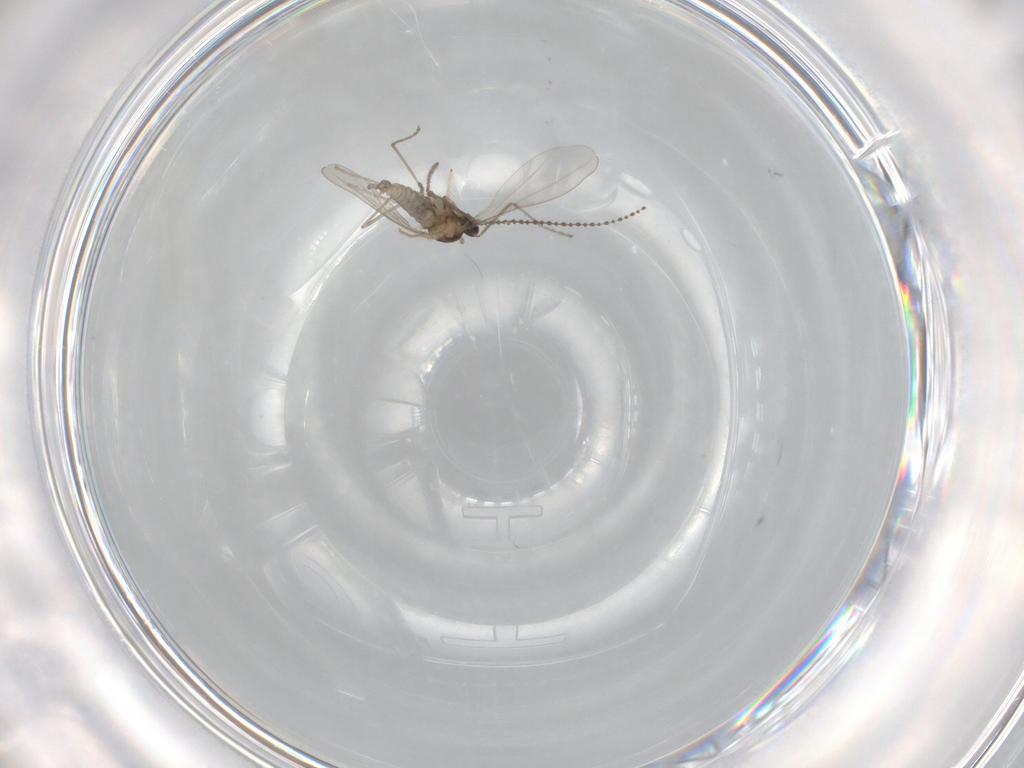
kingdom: Animalia
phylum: Arthropoda
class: Insecta
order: Diptera
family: Cecidomyiidae
